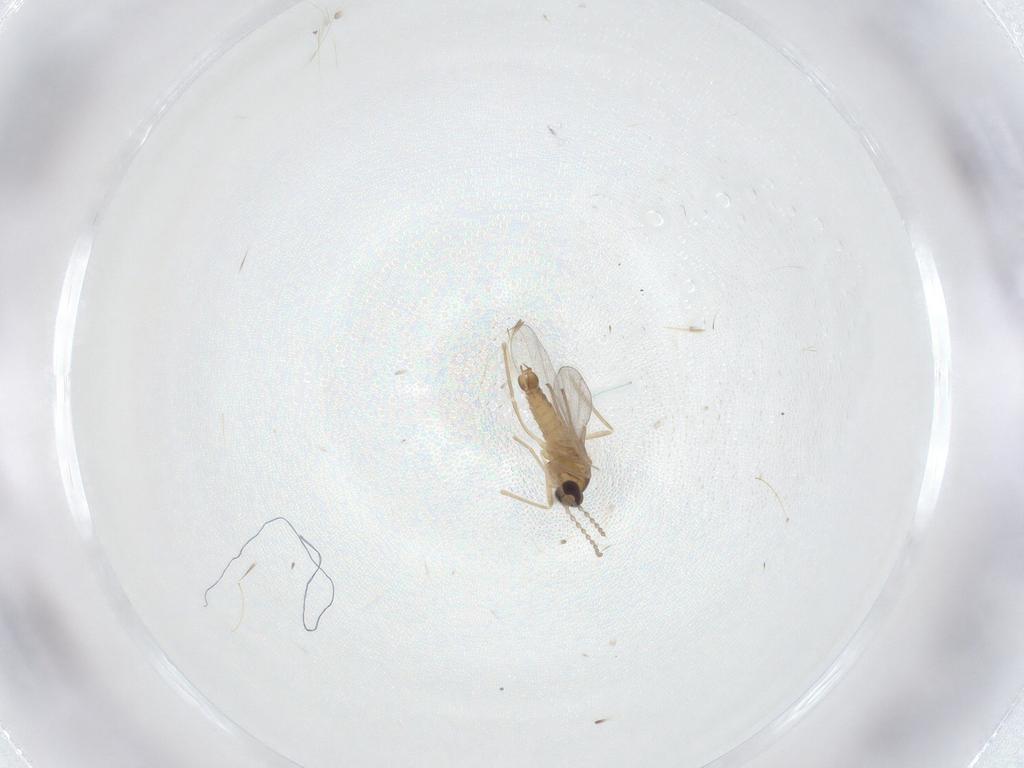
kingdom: Animalia
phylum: Arthropoda
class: Insecta
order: Diptera
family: Cecidomyiidae
